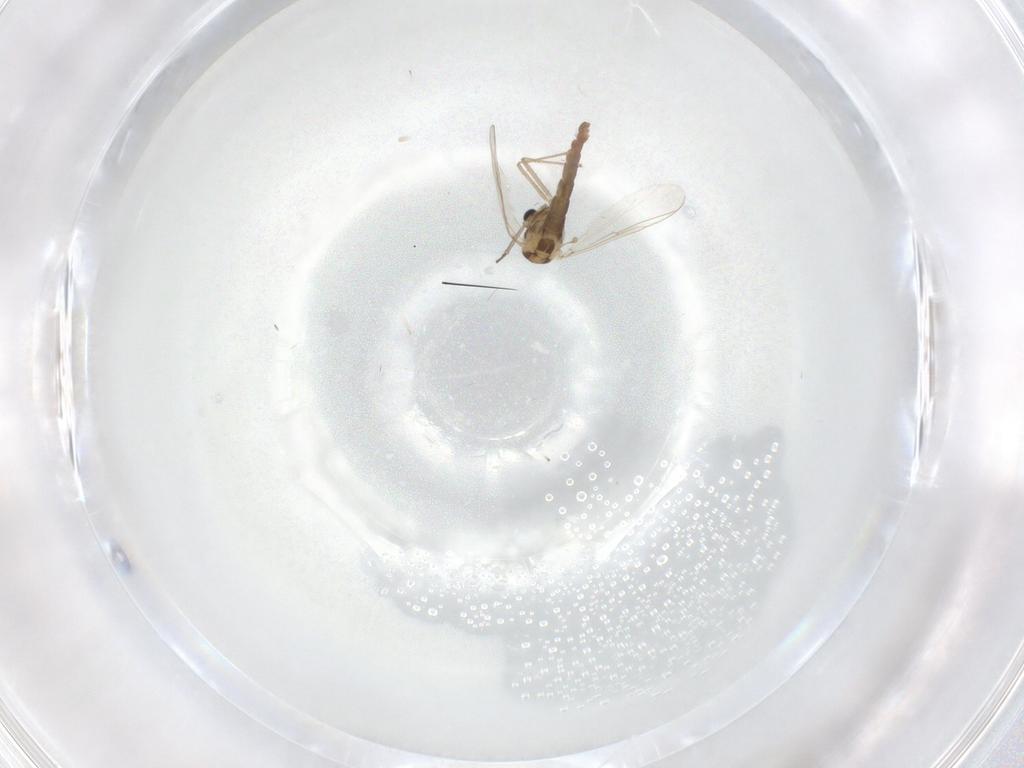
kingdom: Animalia
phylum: Arthropoda
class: Insecta
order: Diptera
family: Chironomidae
